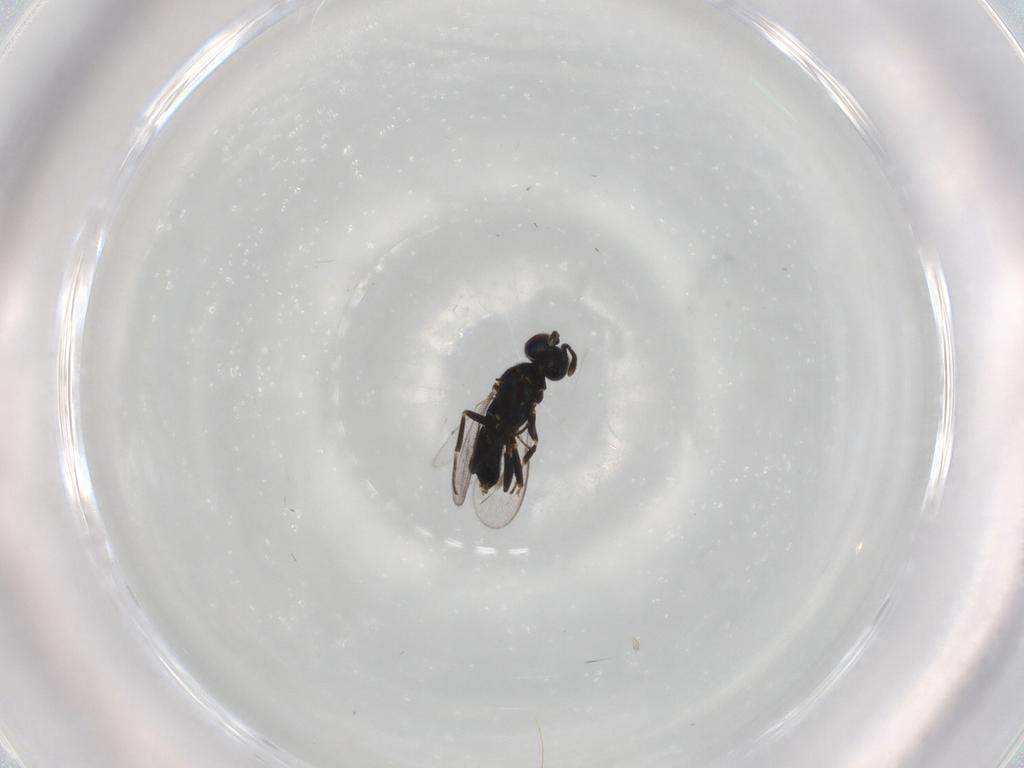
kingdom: Animalia
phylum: Arthropoda
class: Insecta
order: Hymenoptera
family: Eupelmidae
